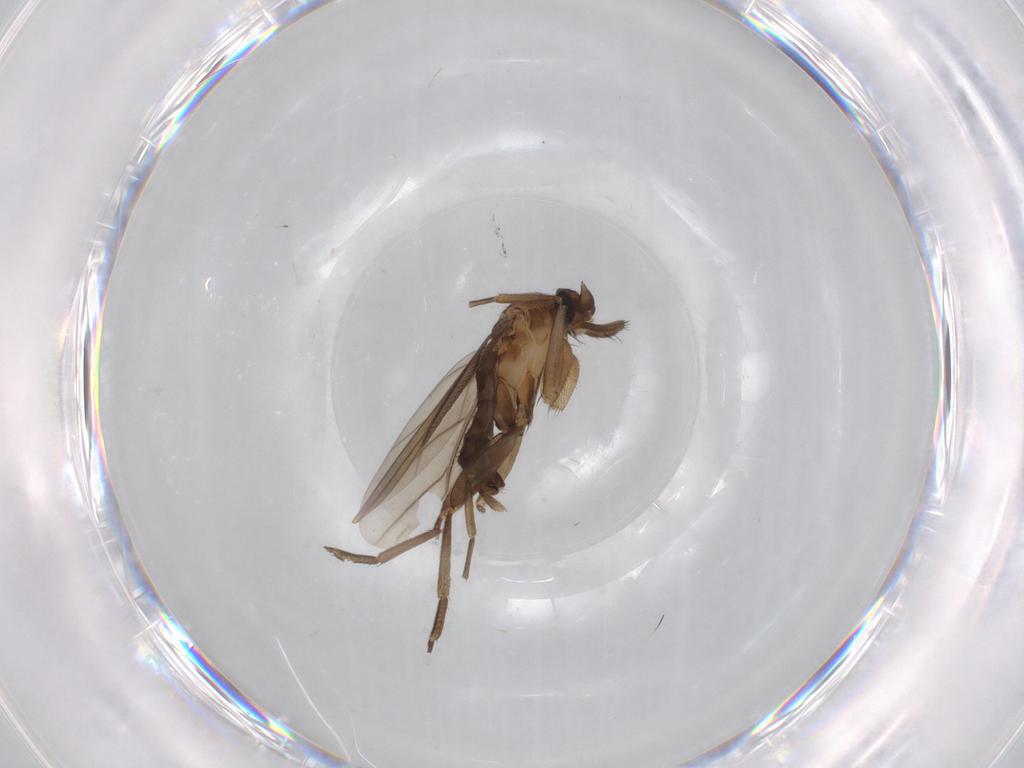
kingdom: Animalia
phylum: Arthropoda
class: Insecta
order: Diptera
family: Phoridae
